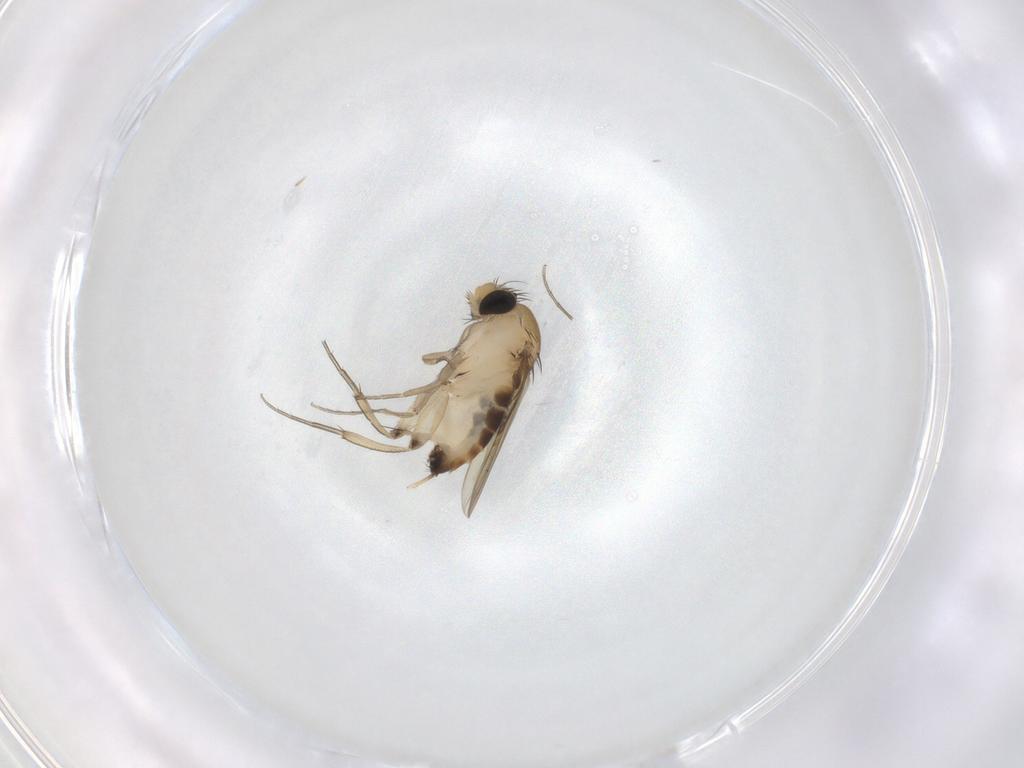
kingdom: Animalia
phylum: Arthropoda
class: Insecta
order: Diptera
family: Phoridae
